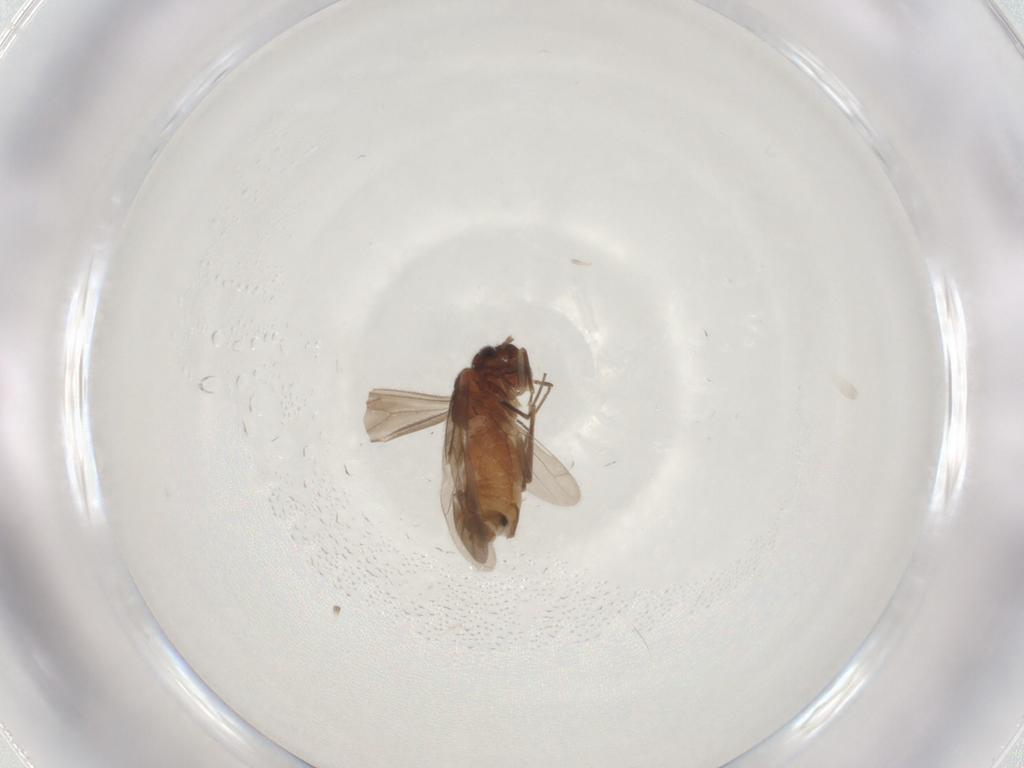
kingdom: Animalia
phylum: Arthropoda
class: Insecta
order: Psocodea
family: Caeciliusidae
